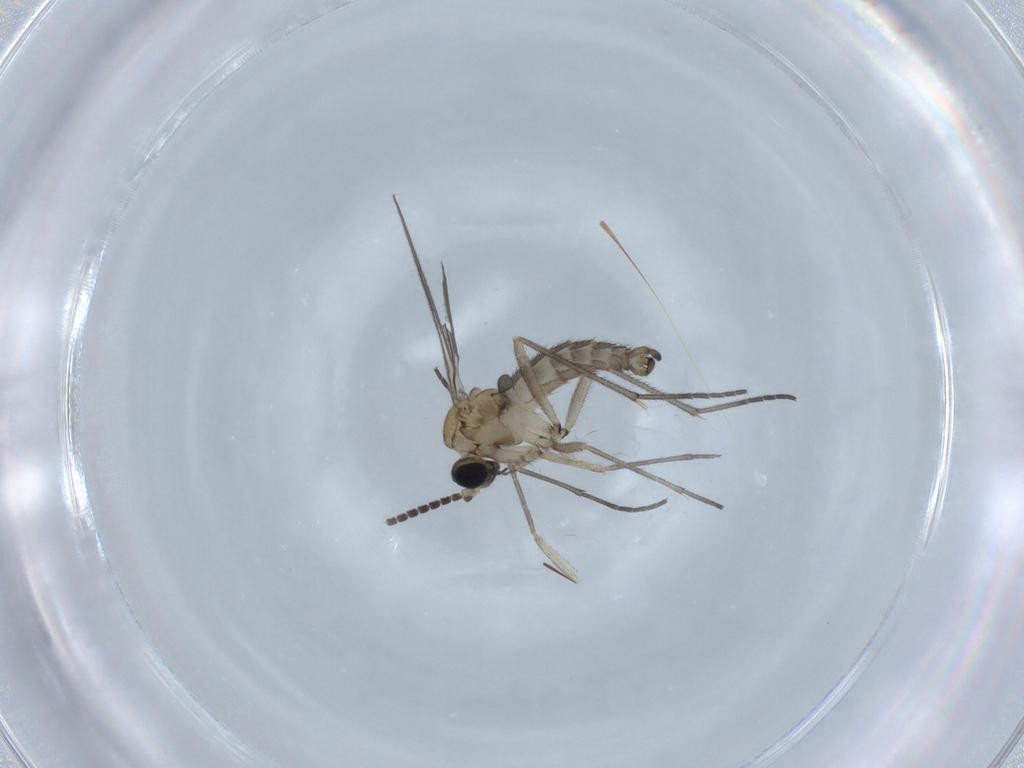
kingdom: Animalia
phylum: Arthropoda
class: Insecta
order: Diptera
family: Sciaridae
